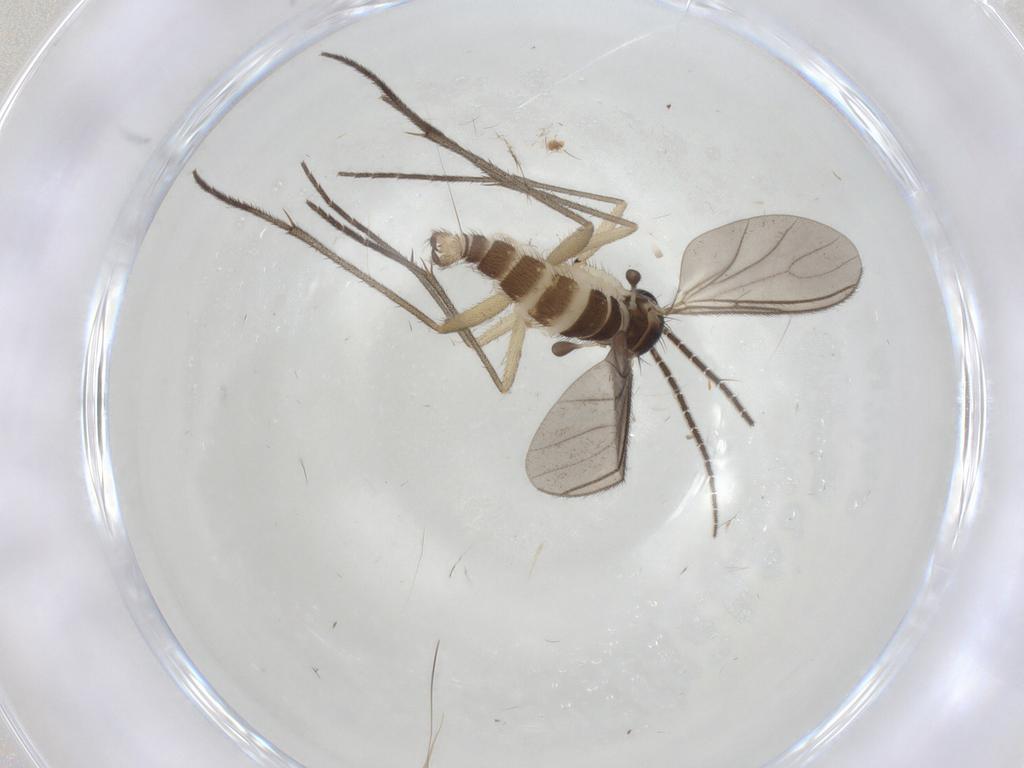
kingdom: Animalia
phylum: Arthropoda
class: Insecta
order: Diptera
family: Sciaridae
